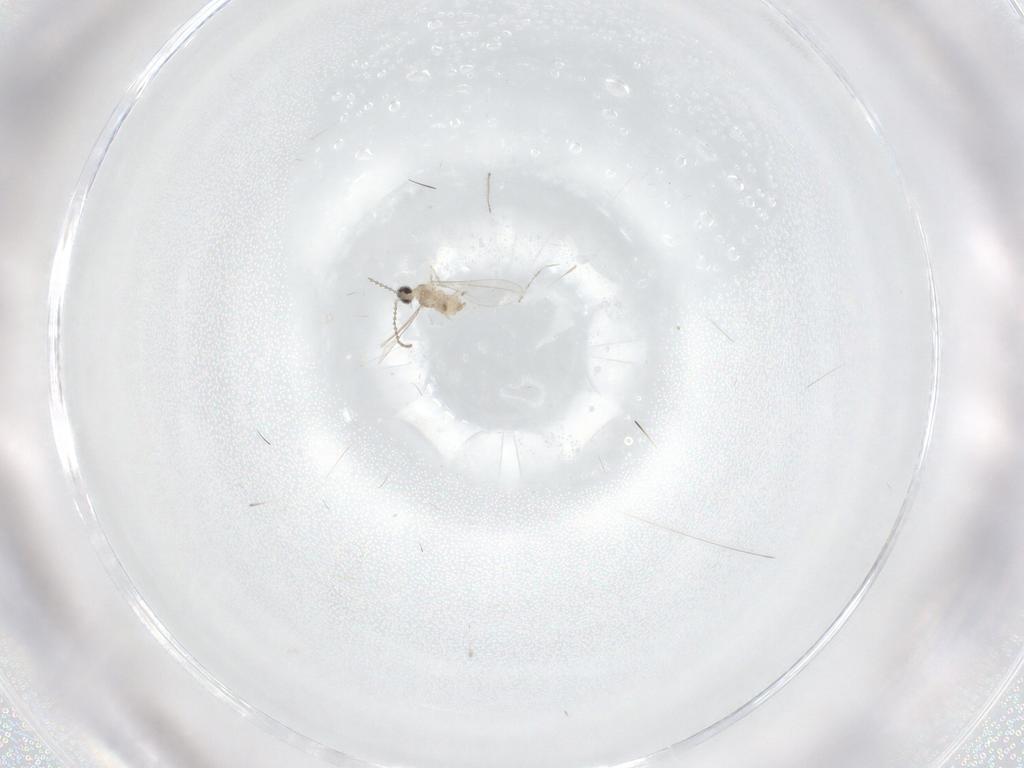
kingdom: Animalia
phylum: Arthropoda
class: Insecta
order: Diptera
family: Cecidomyiidae
